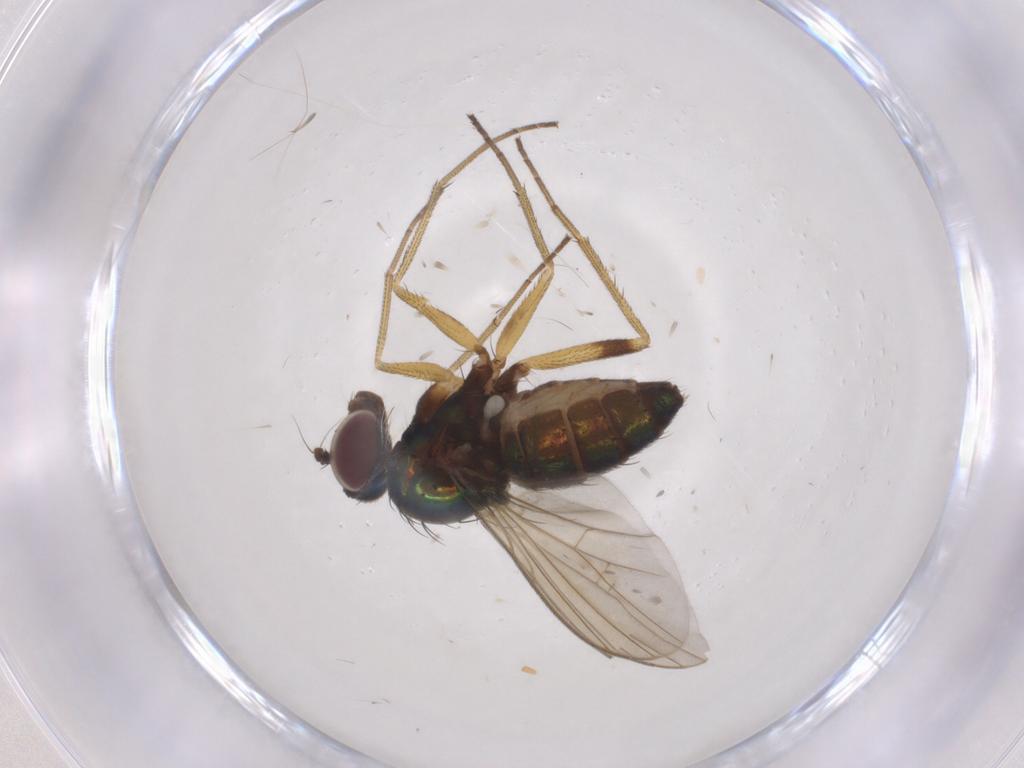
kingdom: Animalia
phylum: Arthropoda
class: Insecta
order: Diptera
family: Dolichopodidae
